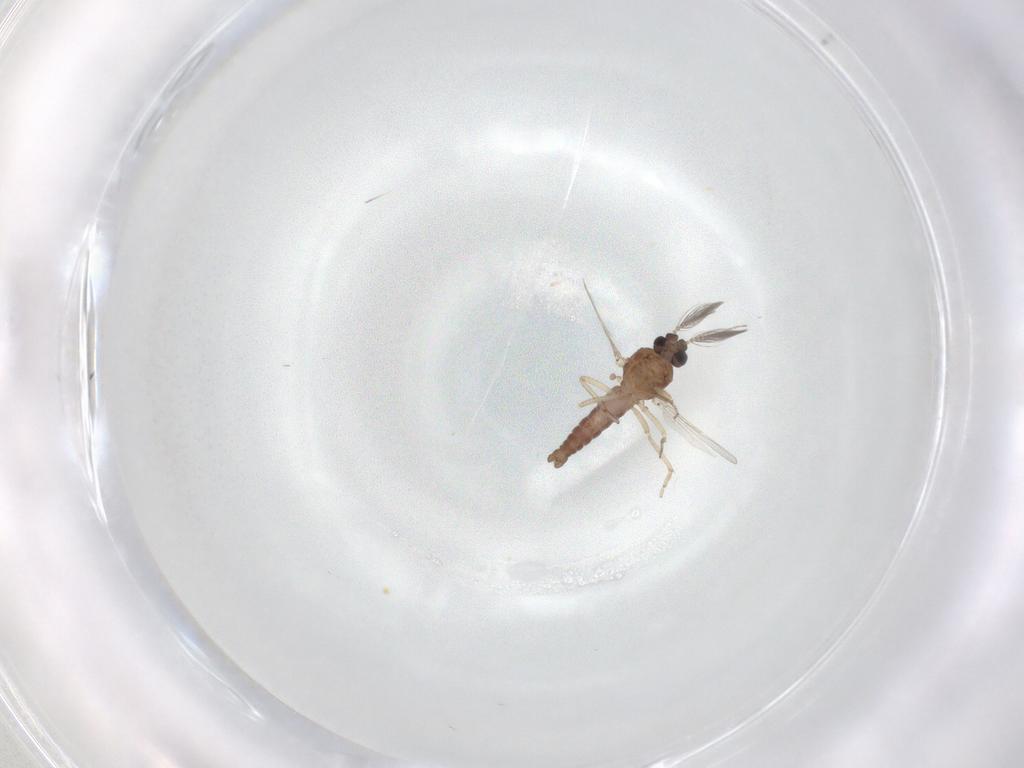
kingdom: Animalia
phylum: Arthropoda
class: Insecta
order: Diptera
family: Ceratopogonidae
